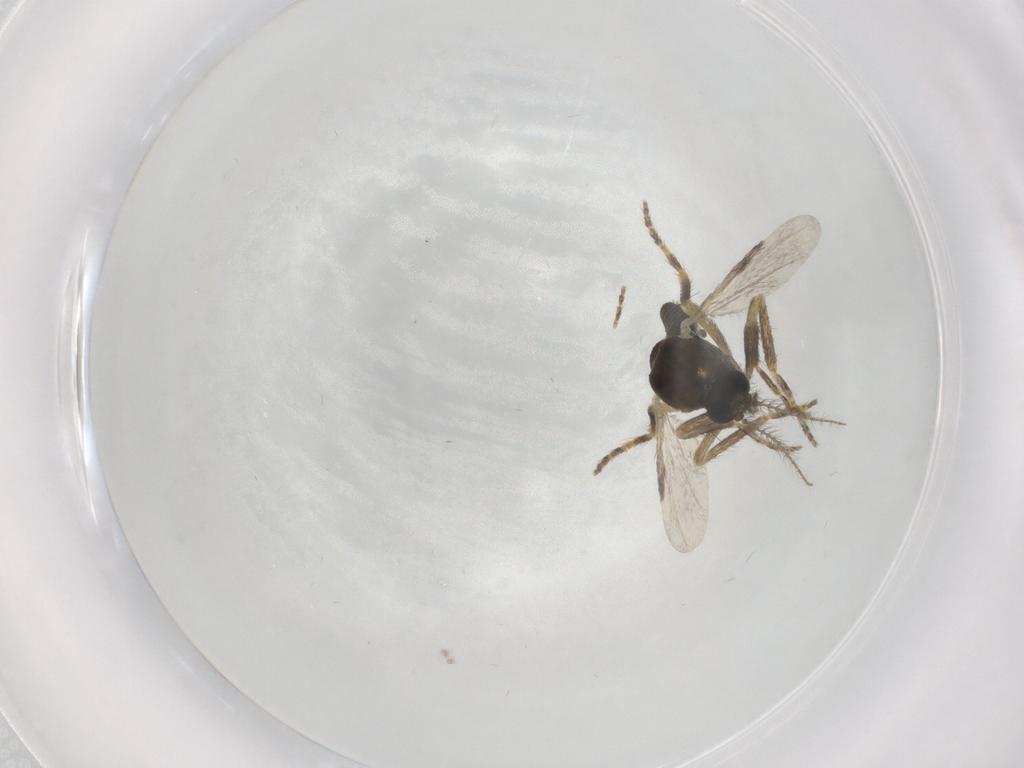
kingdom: Animalia
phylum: Arthropoda
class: Insecta
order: Diptera
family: Ceratopogonidae
